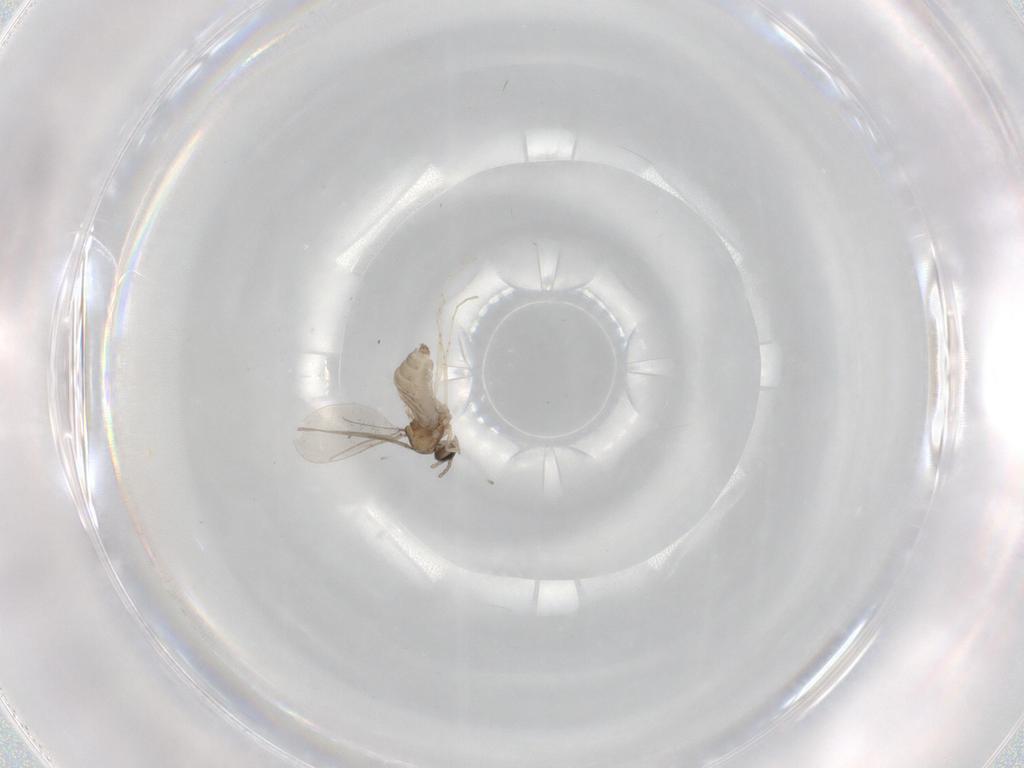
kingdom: Animalia
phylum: Arthropoda
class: Insecta
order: Diptera
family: Cecidomyiidae
